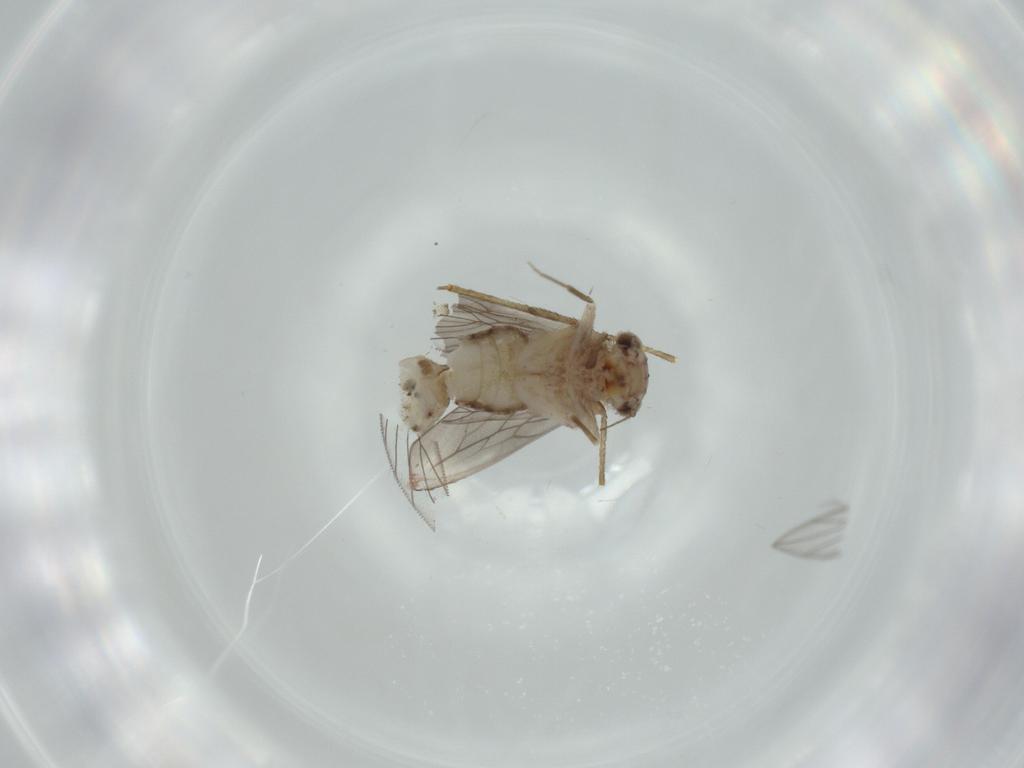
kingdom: Animalia
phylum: Arthropoda
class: Insecta
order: Psocodea
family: Lepidopsocidae
